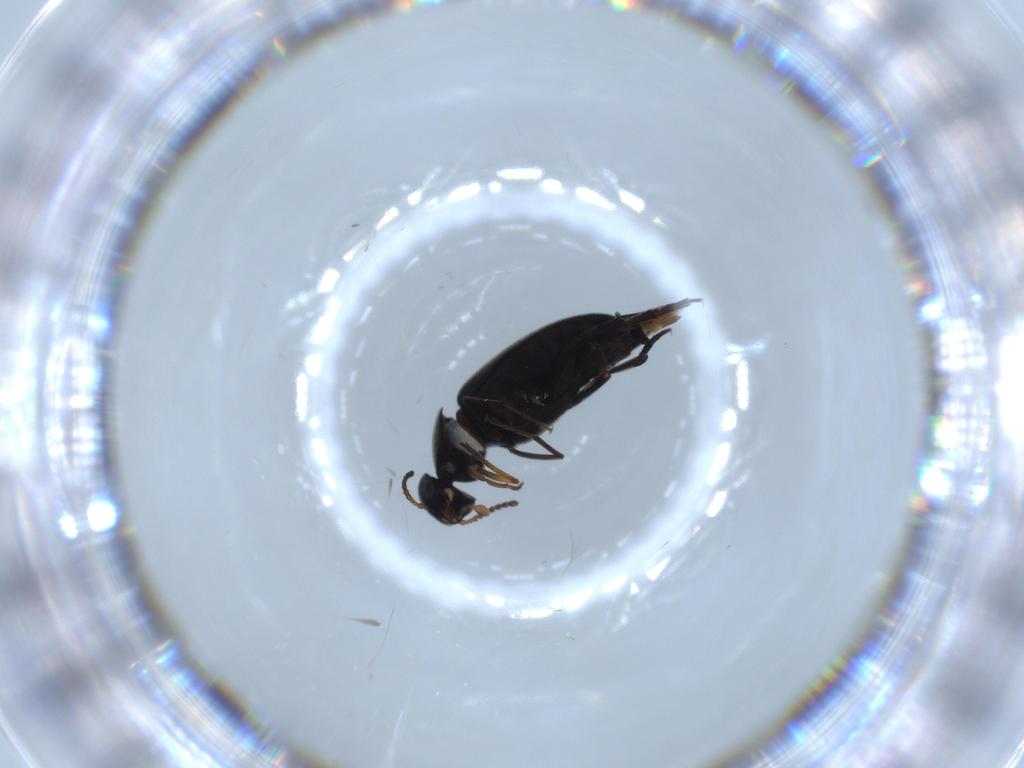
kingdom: Animalia
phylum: Arthropoda
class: Insecta
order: Coleoptera
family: Mordellidae
